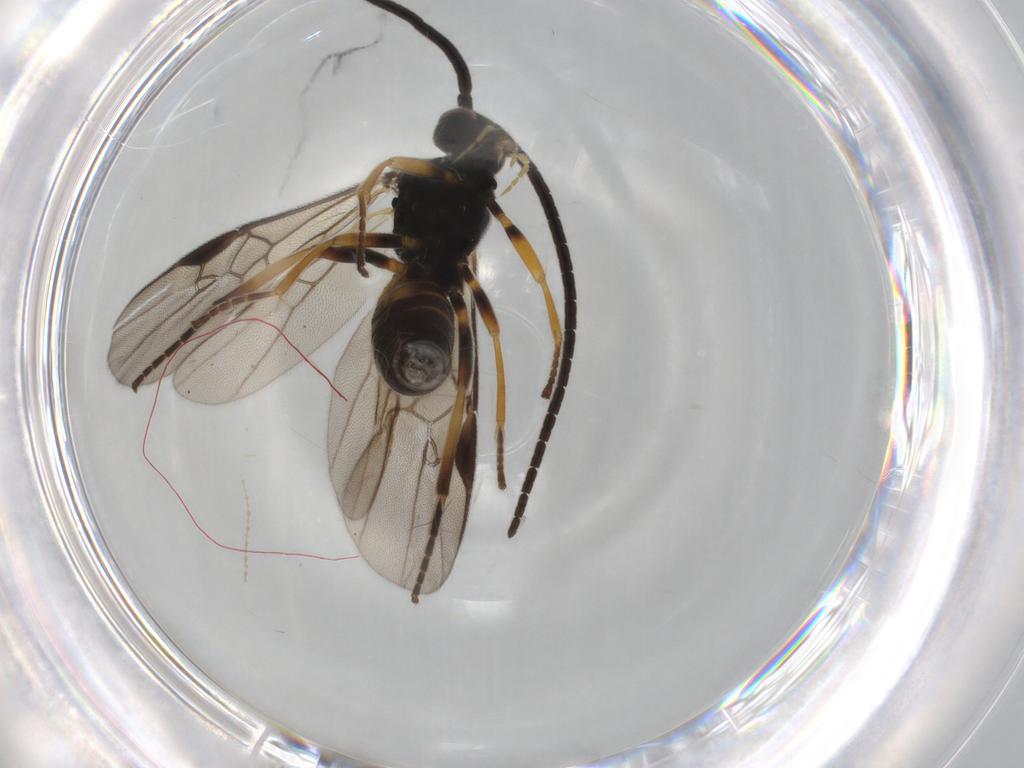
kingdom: Animalia
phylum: Arthropoda
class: Insecta
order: Hymenoptera
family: Braconidae
